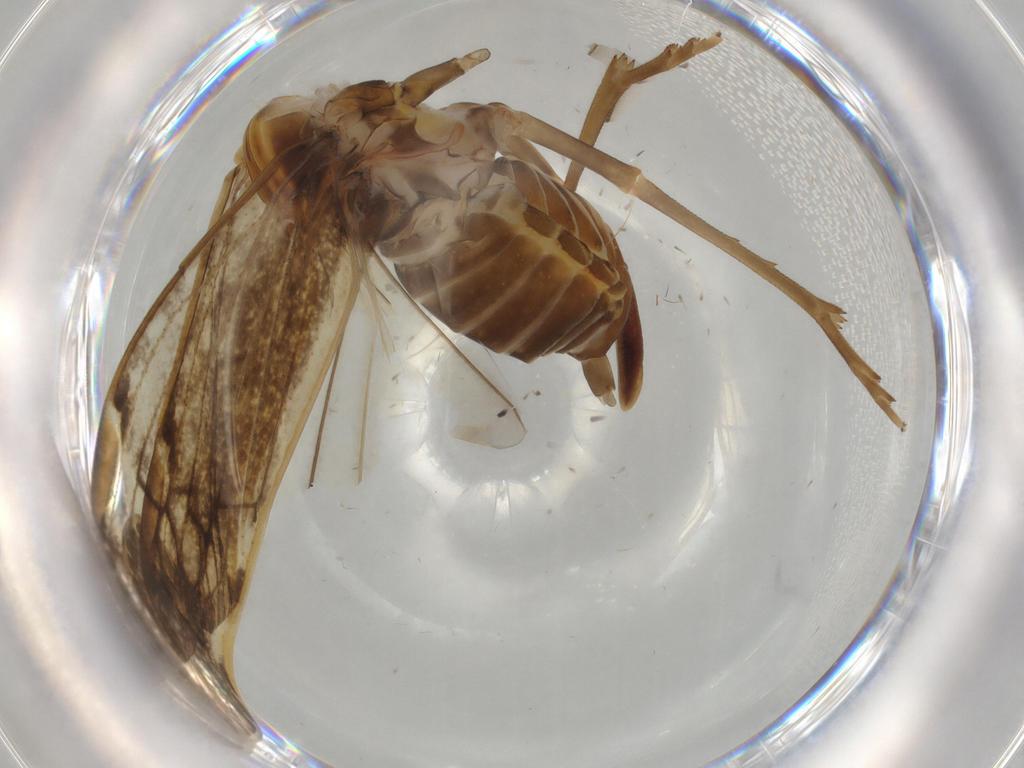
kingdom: Animalia
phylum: Arthropoda
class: Insecta
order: Hemiptera
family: Cixiidae
